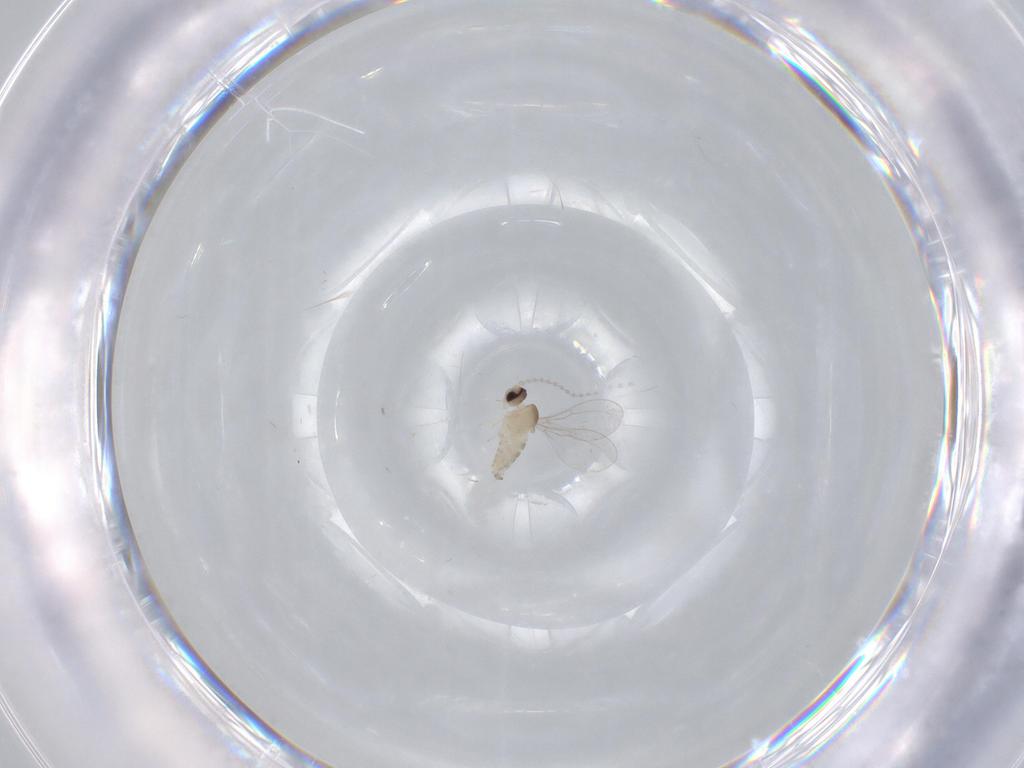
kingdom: Animalia
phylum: Arthropoda
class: Insecta
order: Diptera
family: Cecidomyiidae
